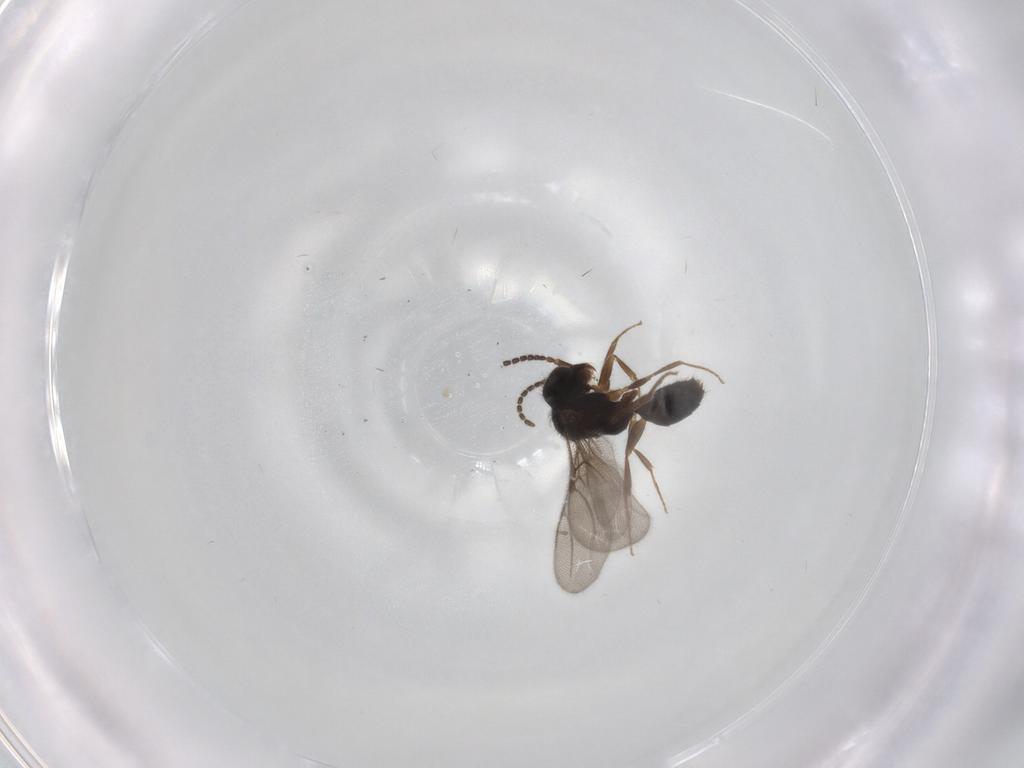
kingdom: Animalia
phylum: Arthropoda
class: Insecta
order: Hymenoptera
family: Bethylidae
